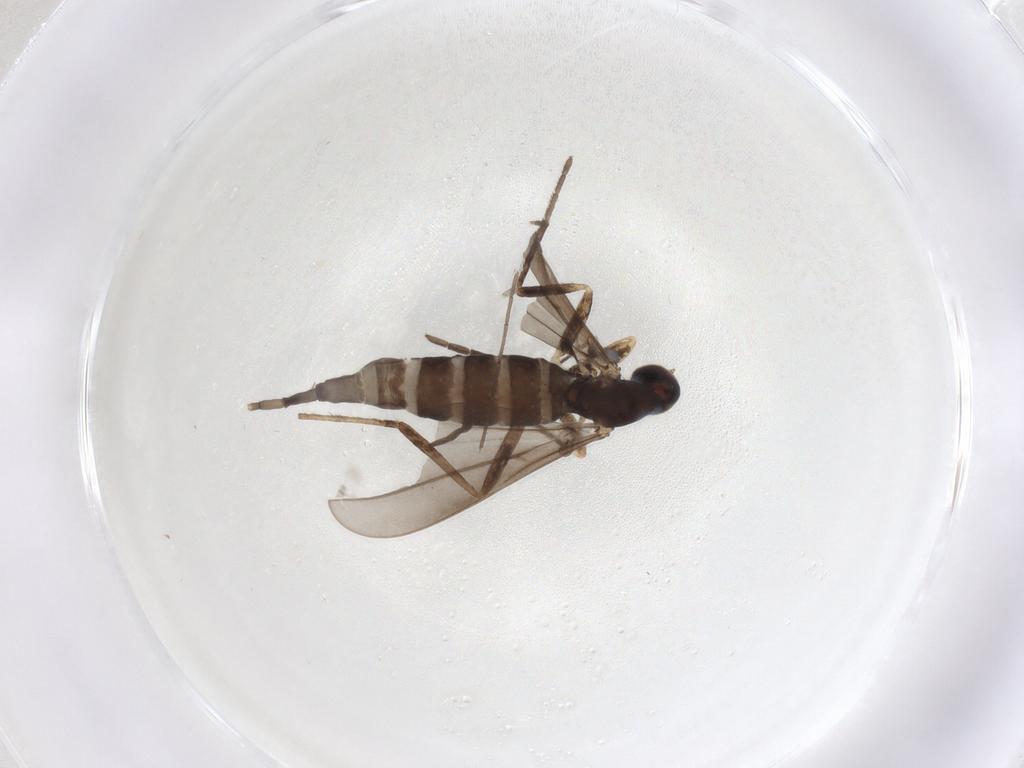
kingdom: Animalia
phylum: Arthropoda
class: Insecta
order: Diptera
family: Cecidomyiidae
